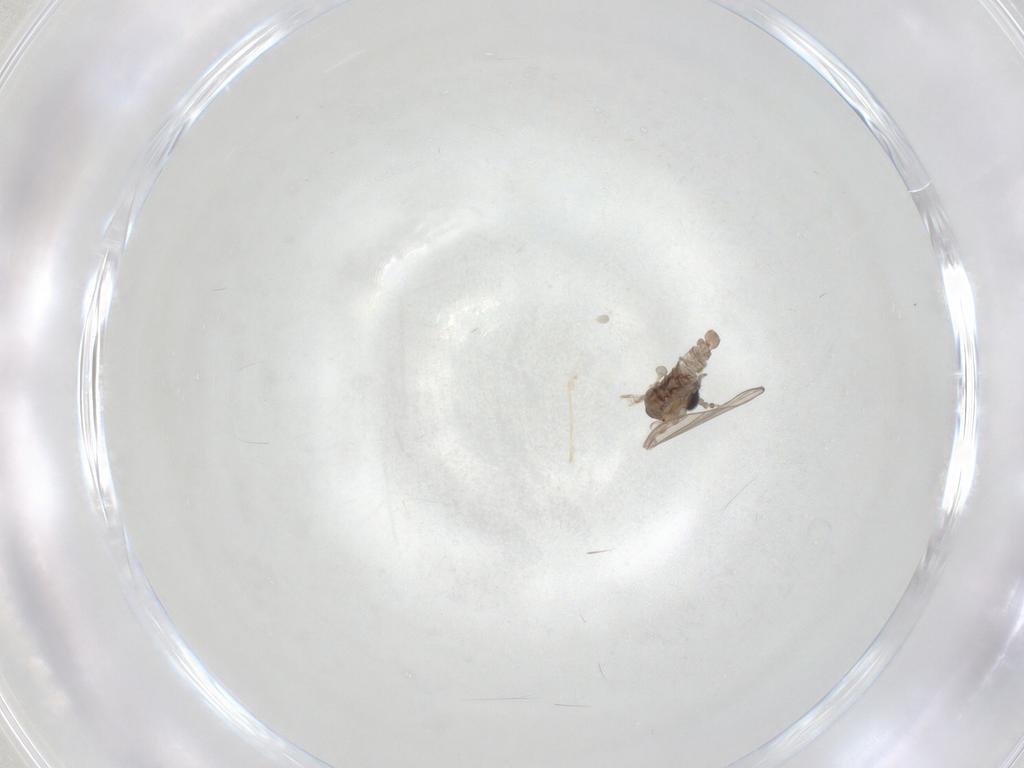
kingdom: Animalia
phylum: Arthropoda
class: Insecta
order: Diptera
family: Psychodidae
